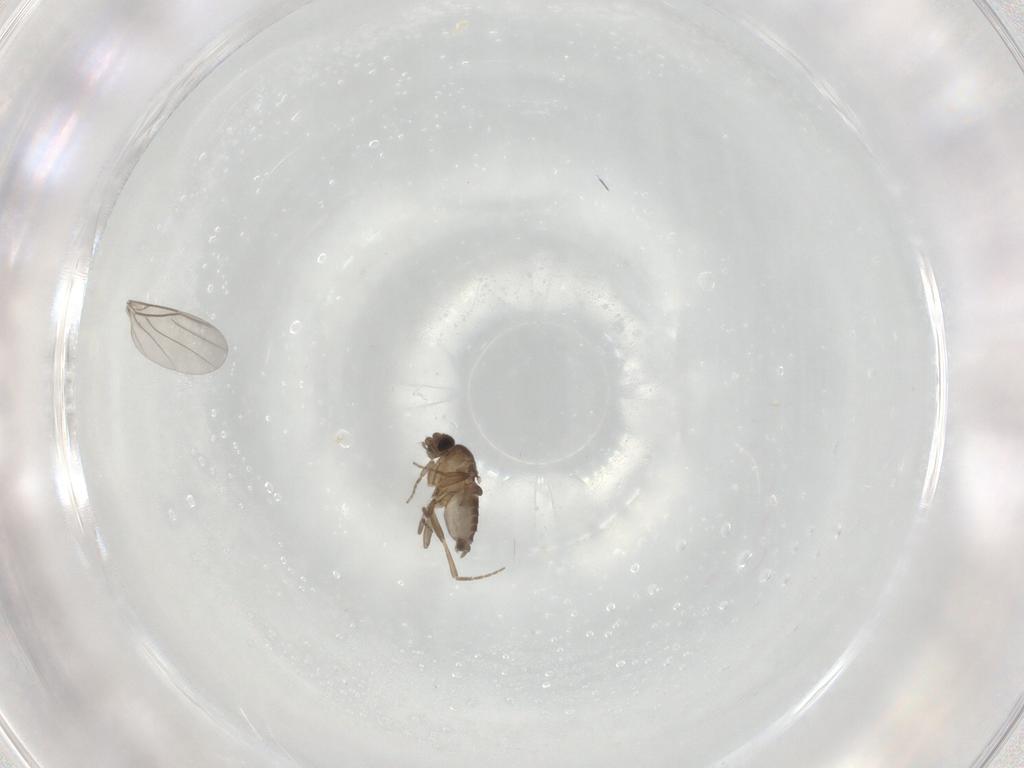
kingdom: Animalia
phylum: Arthropoda
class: Insecta
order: Diptera
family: Phoridae
